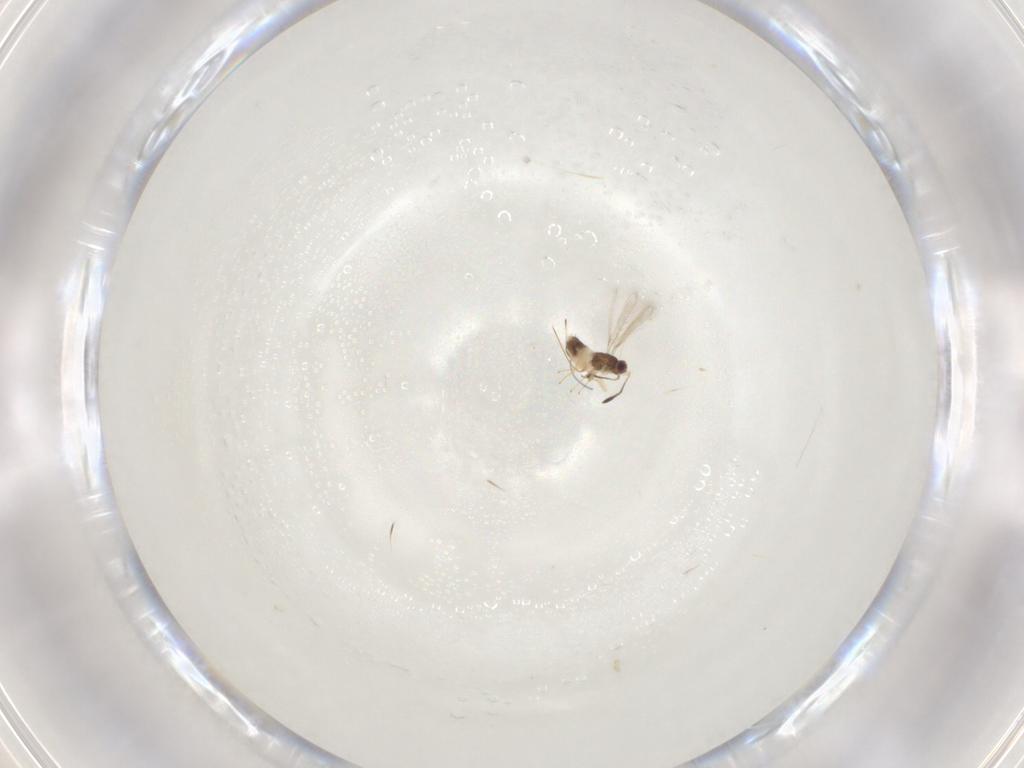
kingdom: Animalia
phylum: Arthropoda
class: Insecta
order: Hymenoptera
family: Mymaridae
